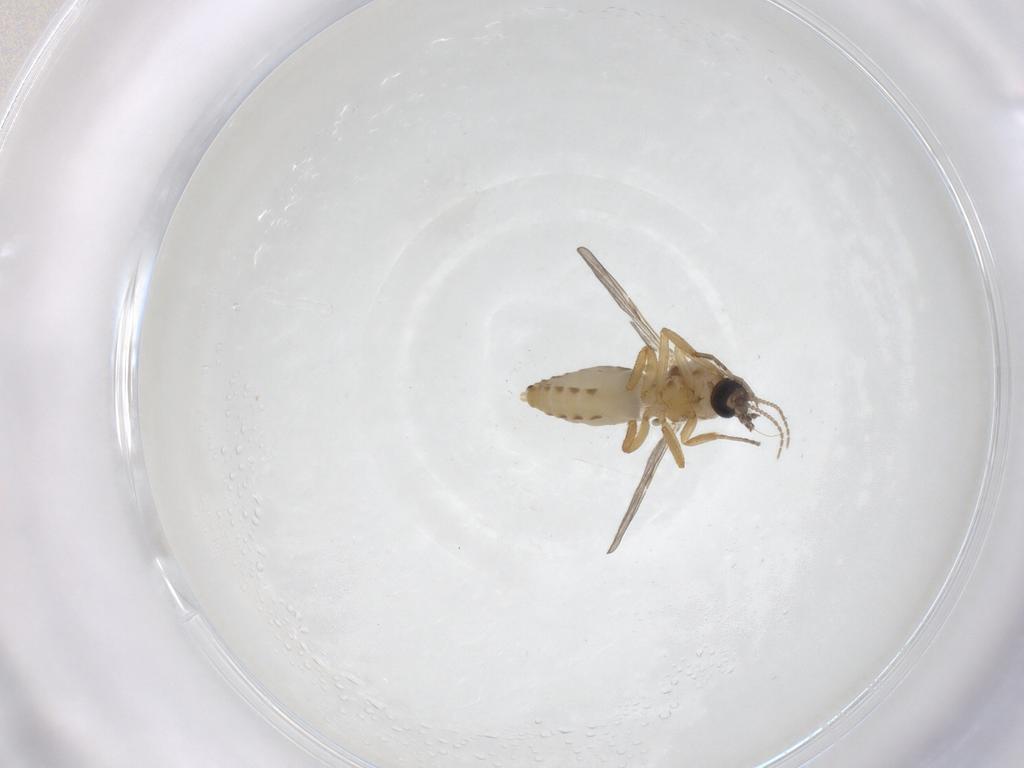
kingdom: Animalia
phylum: Arthropoda
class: Insecta
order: Diptera
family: Ceratopogonidae
